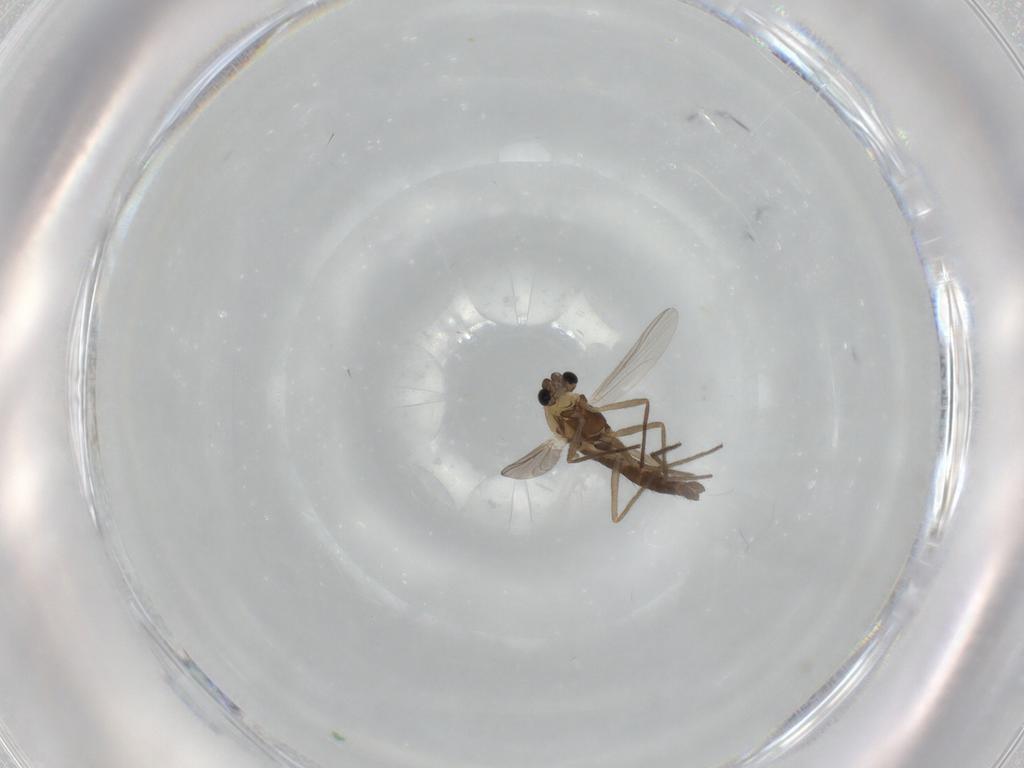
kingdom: Animalia
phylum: Arthropoda
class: Insecta
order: Diptera
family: Chironomidae
